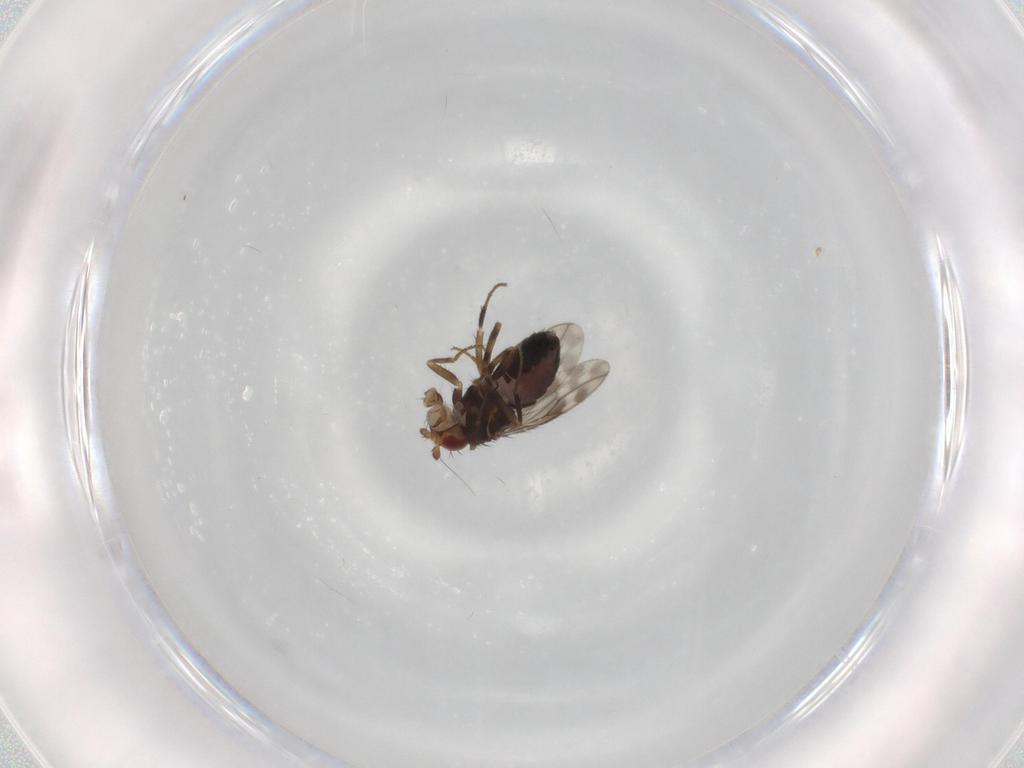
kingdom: Animalia
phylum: Arthropoda
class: Insecta
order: Diptera
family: Sphaeroceridae
